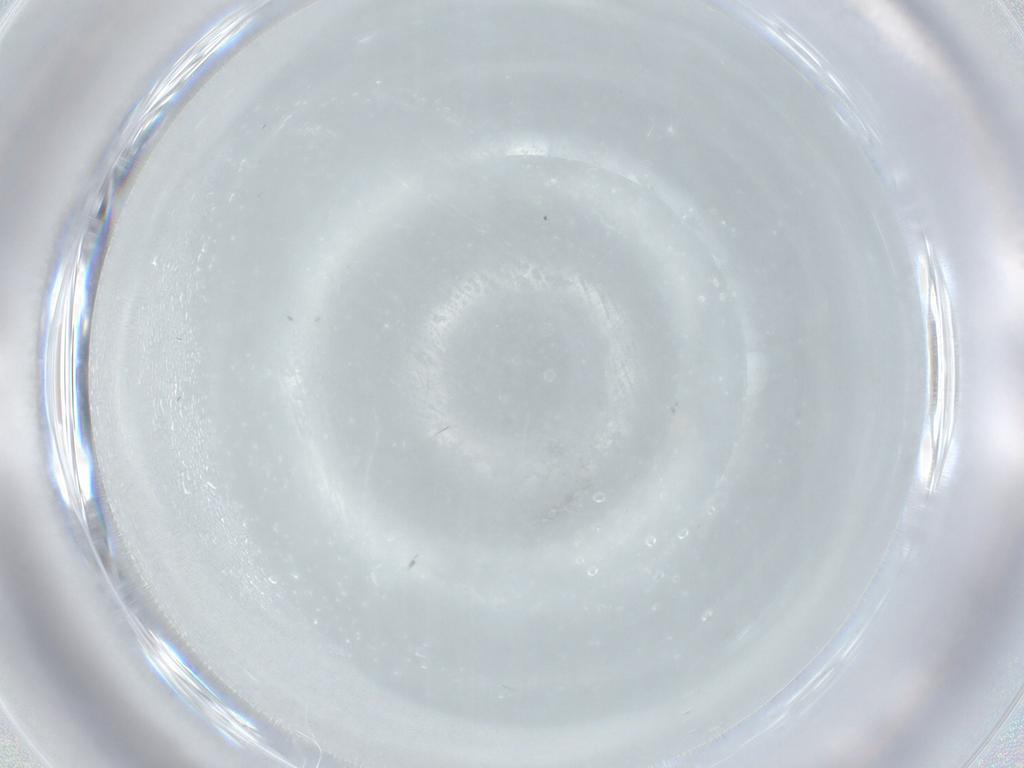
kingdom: Animalia
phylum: Arthropoda
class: Insecta
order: Diptera
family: Chironomidae
